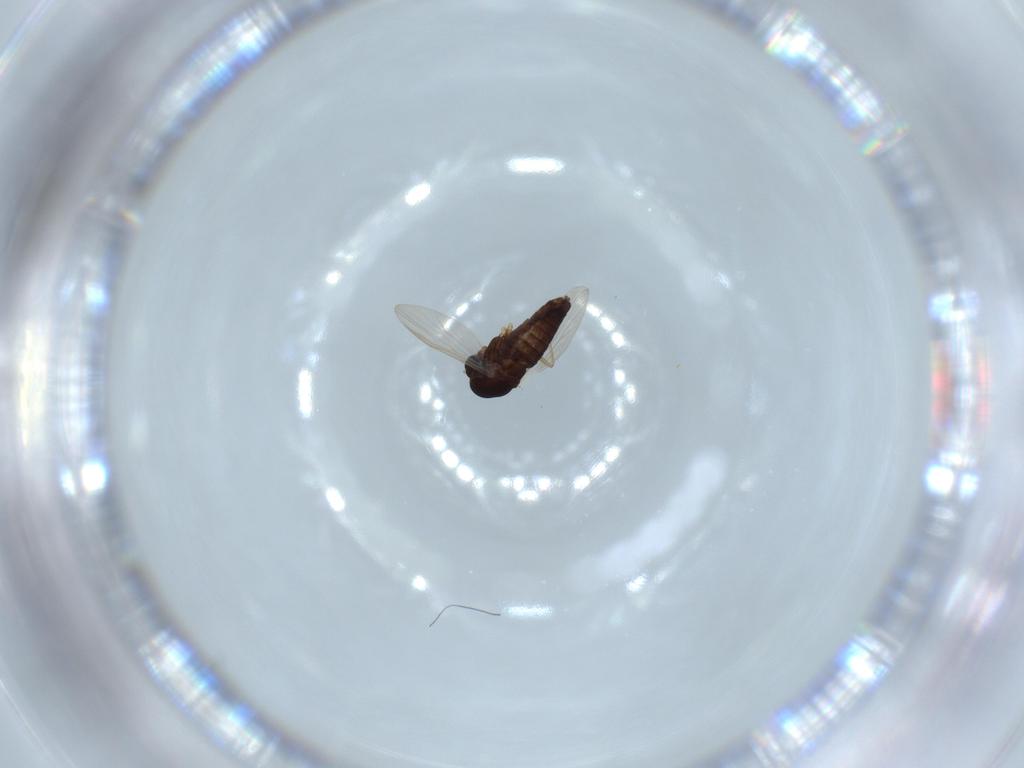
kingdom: Animalia
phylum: Arthropoda
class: Insecta
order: Diptera
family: Chironomidae
